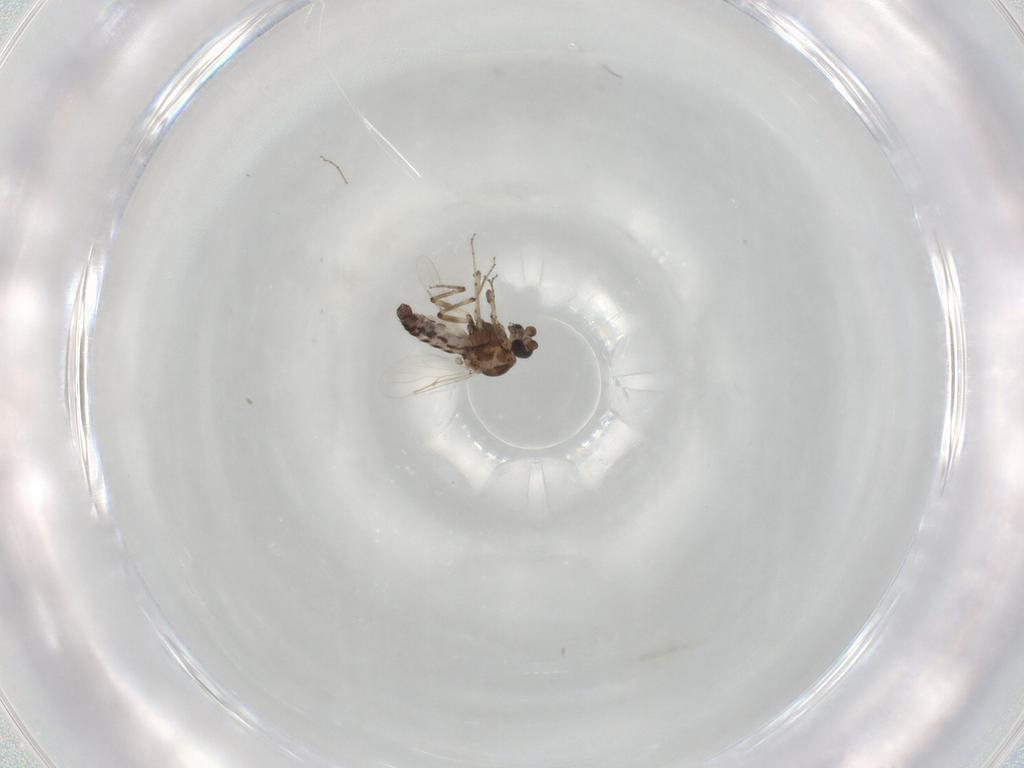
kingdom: Animalia
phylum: Arthropoda
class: Insecta
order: Diptera
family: Ceratopogonidae
